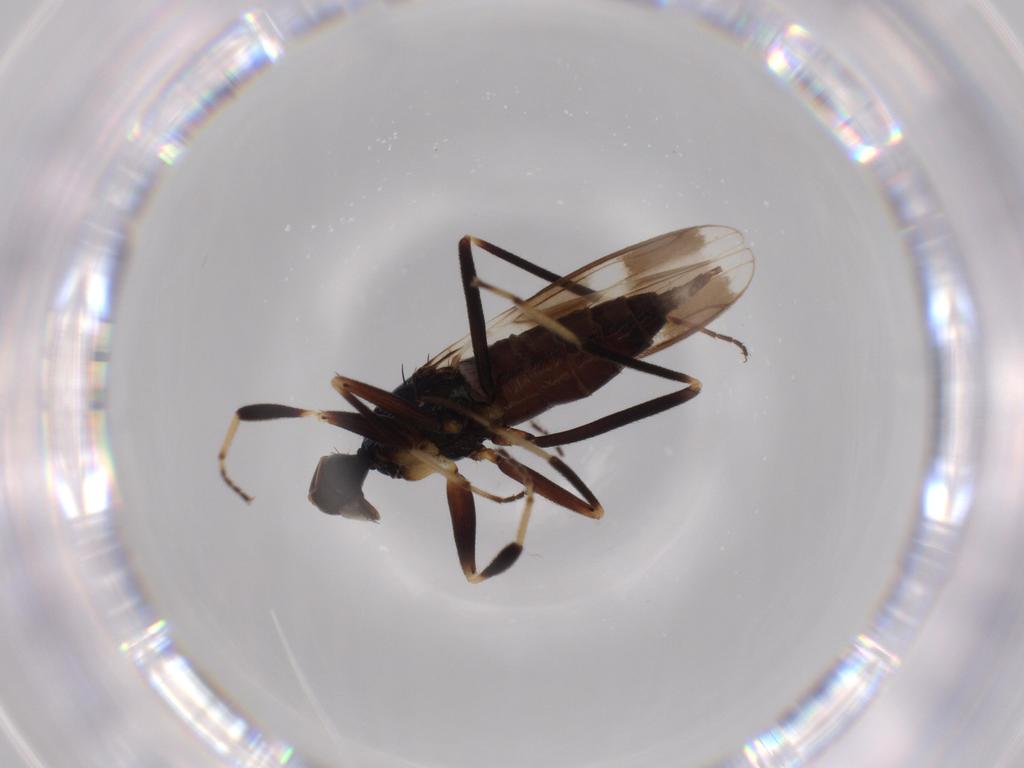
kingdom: Animalia
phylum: Arthropoda
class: Insecta
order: Diptera
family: Hybotidae
